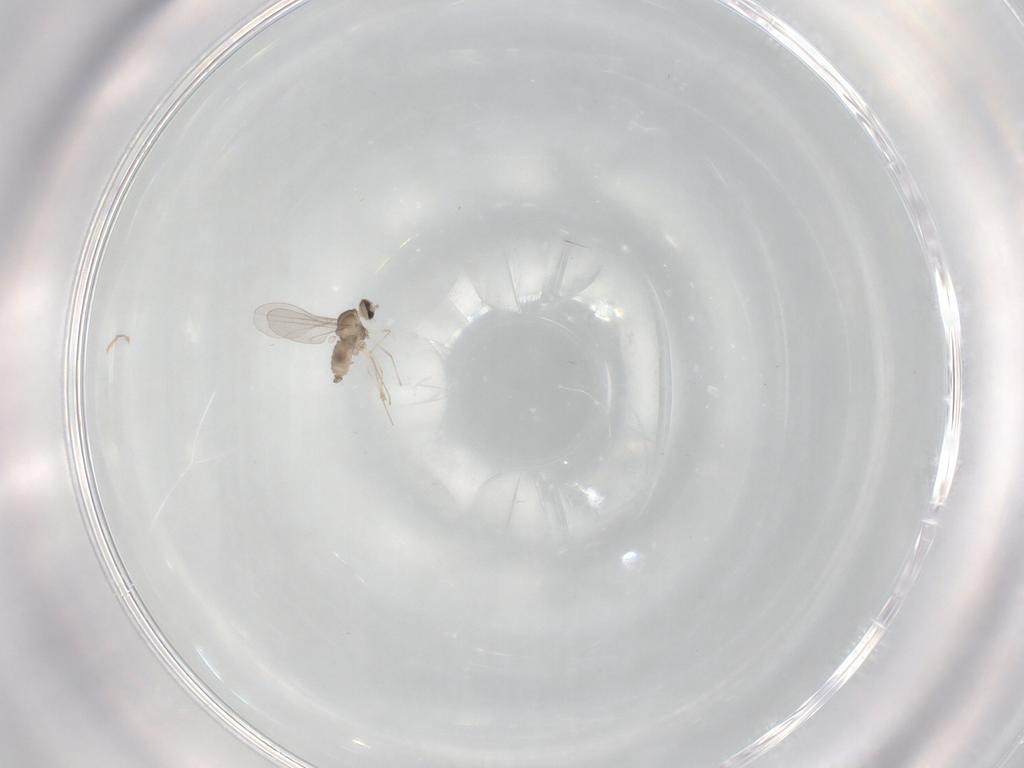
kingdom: Animalia
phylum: Arthropoda
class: Insecta
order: Diptera
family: Cecidomyiidae
